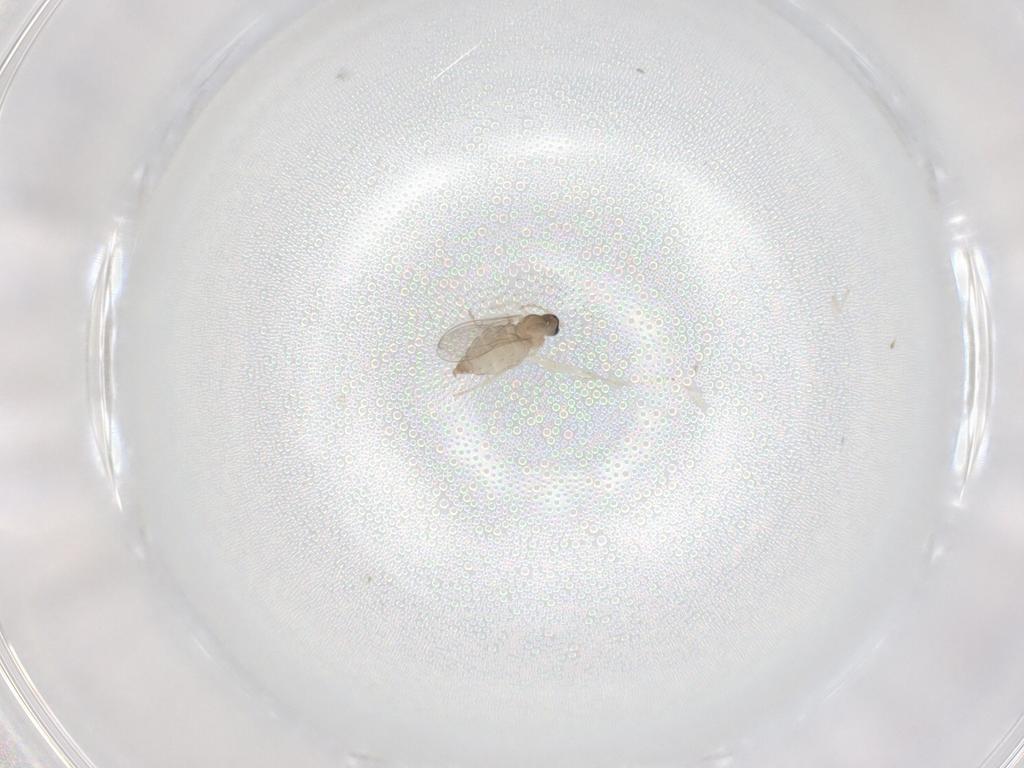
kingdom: Animalia
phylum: Arthropoda
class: Insecta
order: Diptera
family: Cecidomyiidae
